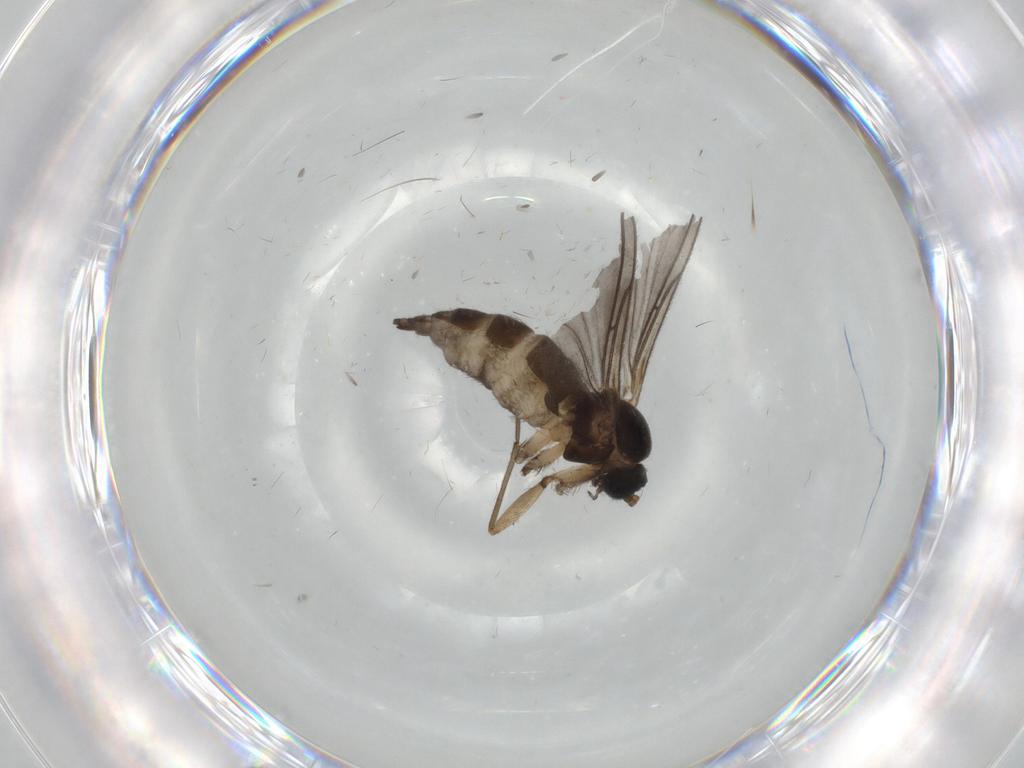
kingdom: Animalia
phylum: Arthropoda
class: Insecta
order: Diptera
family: Sciaridae
